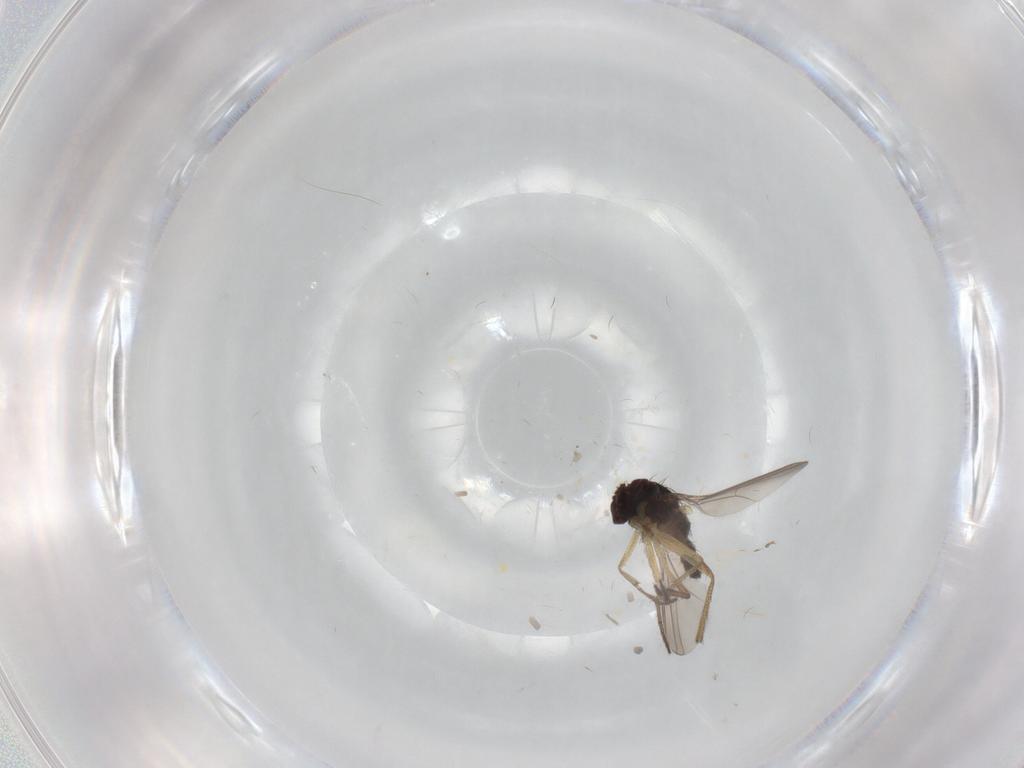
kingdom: Animalia
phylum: Arthropoda
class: Insecta
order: Diptera
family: Dolichopodidae
